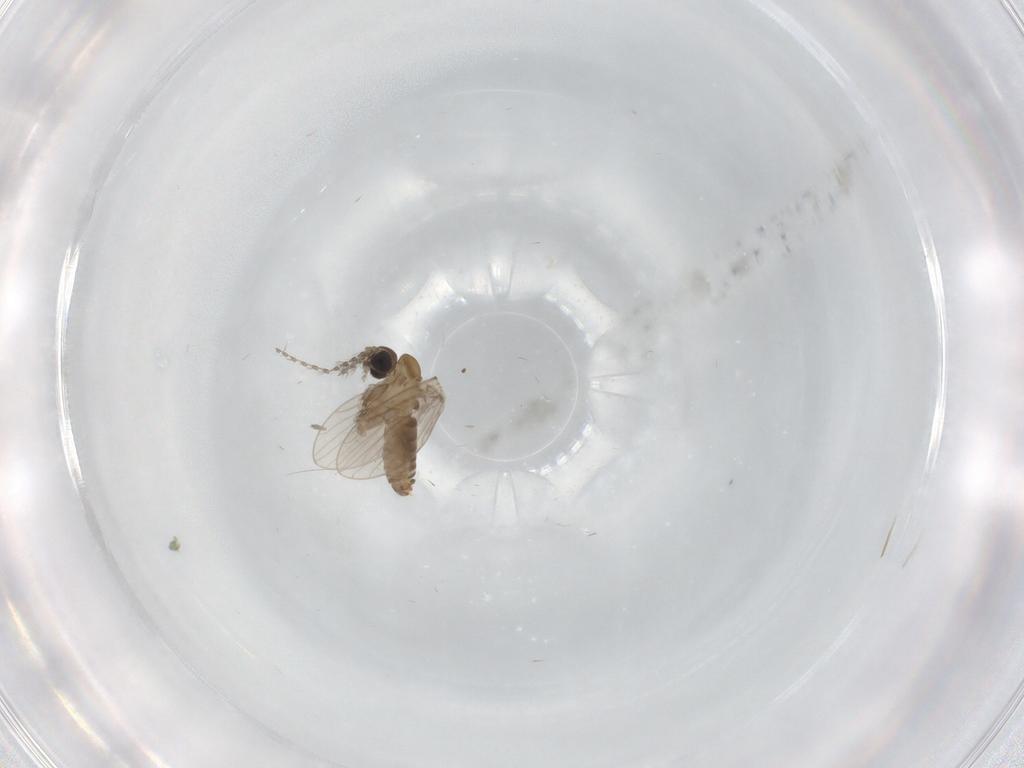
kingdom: Animalia
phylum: Arthropoda
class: Insecta
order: Diptera
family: Psychodidae
